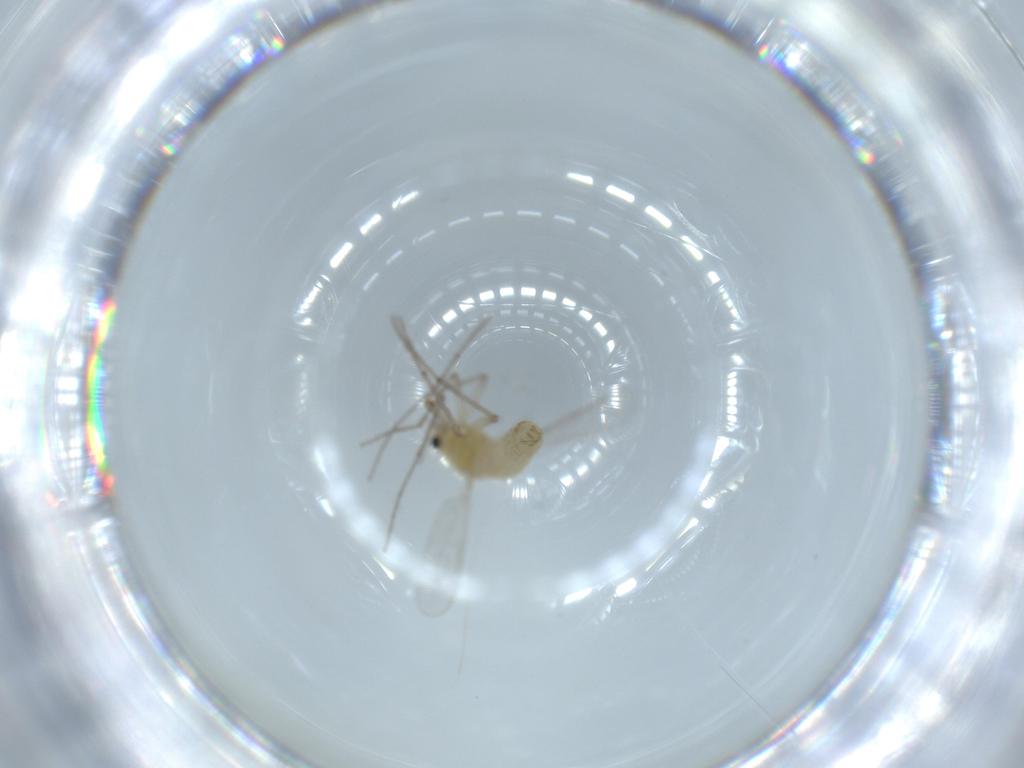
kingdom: Animalia
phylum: Arthropoda
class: Insecta
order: Diptera
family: Chironomidae
